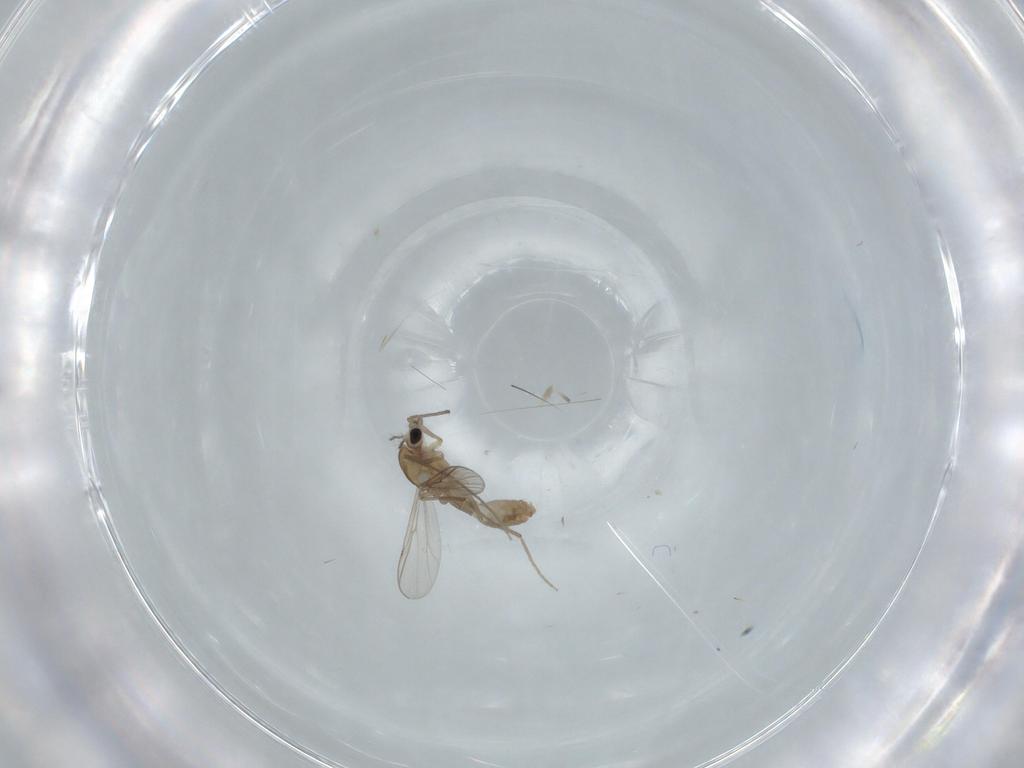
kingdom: Animalia
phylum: Arthropoda
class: Insecta
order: Diptera
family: Chironomidae
